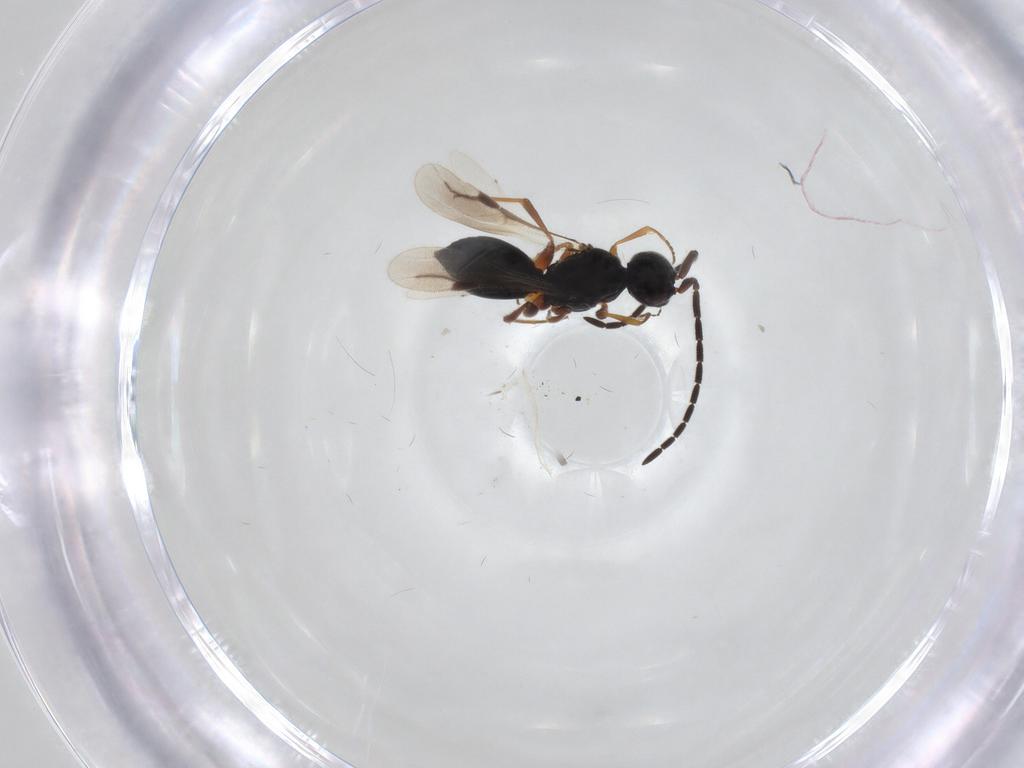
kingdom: Animalia
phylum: Arthropoda
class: Insecta
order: Hymenoptera
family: Megaspilidae
